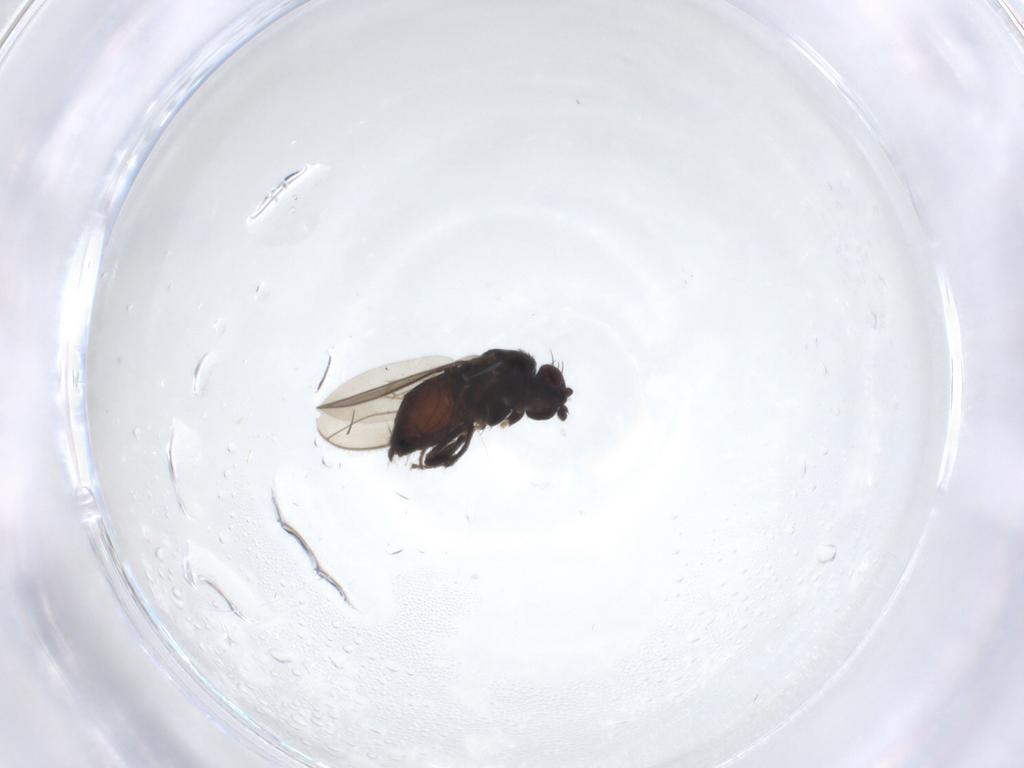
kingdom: Animalia
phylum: Arthropoda
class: Insecta
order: Diptera
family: Sphaeroceridae
